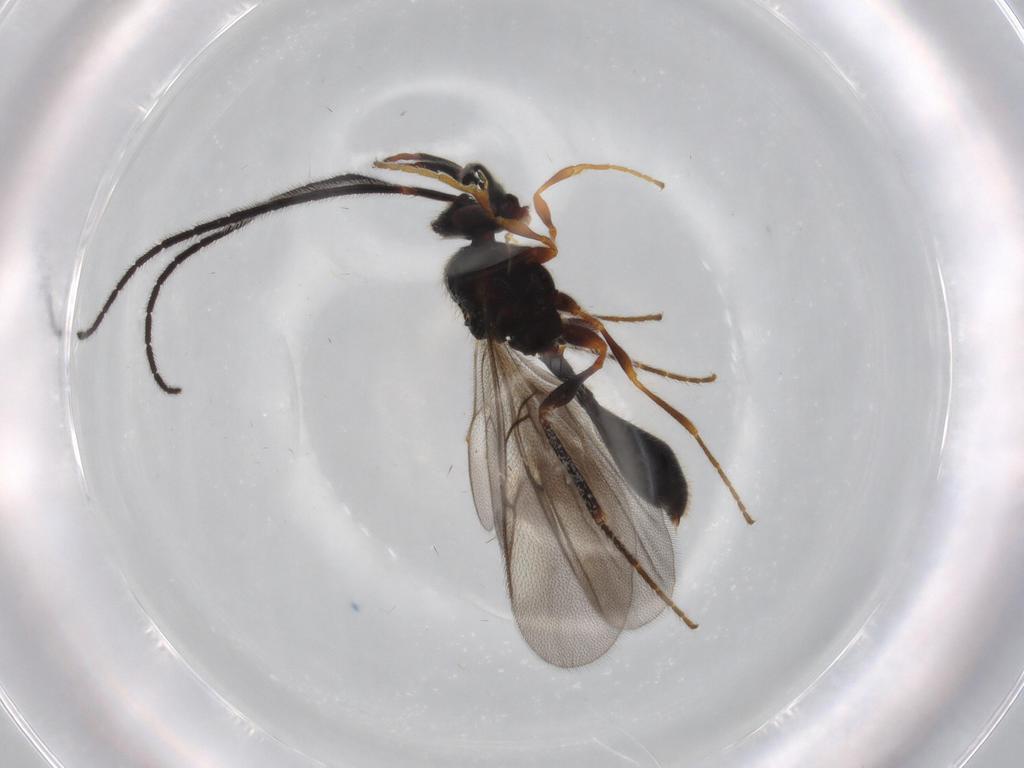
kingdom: Animalia
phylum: Arthropoda
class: Insecta
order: Hymenoptera
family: Diapriidae
